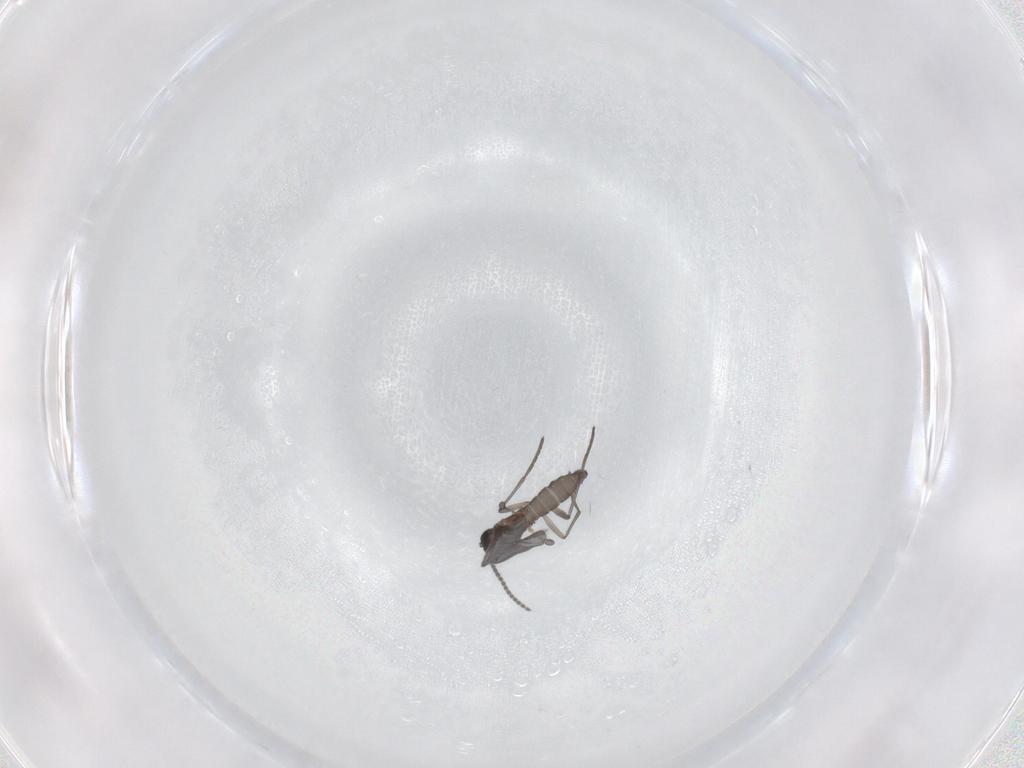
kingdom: Animalia
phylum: Arthropoda
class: Insecta
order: Diptera
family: Sciaridae
